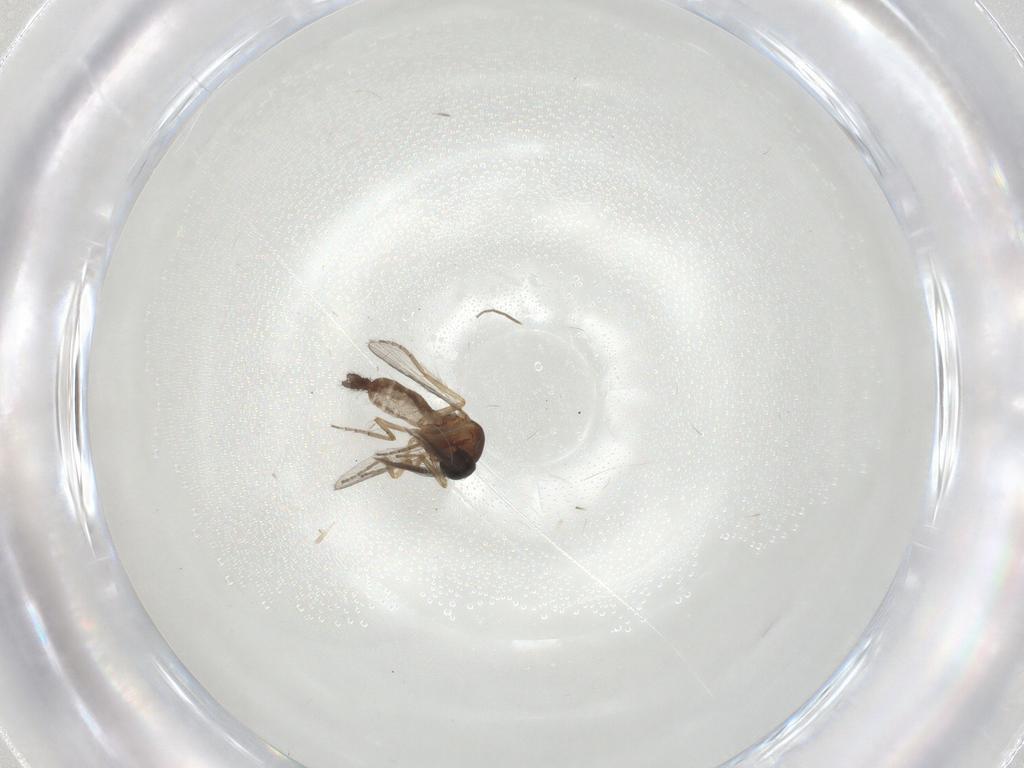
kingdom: Animalia
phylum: Arthropoda
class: Insecta
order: Diptera
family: Ceratopogonidae
